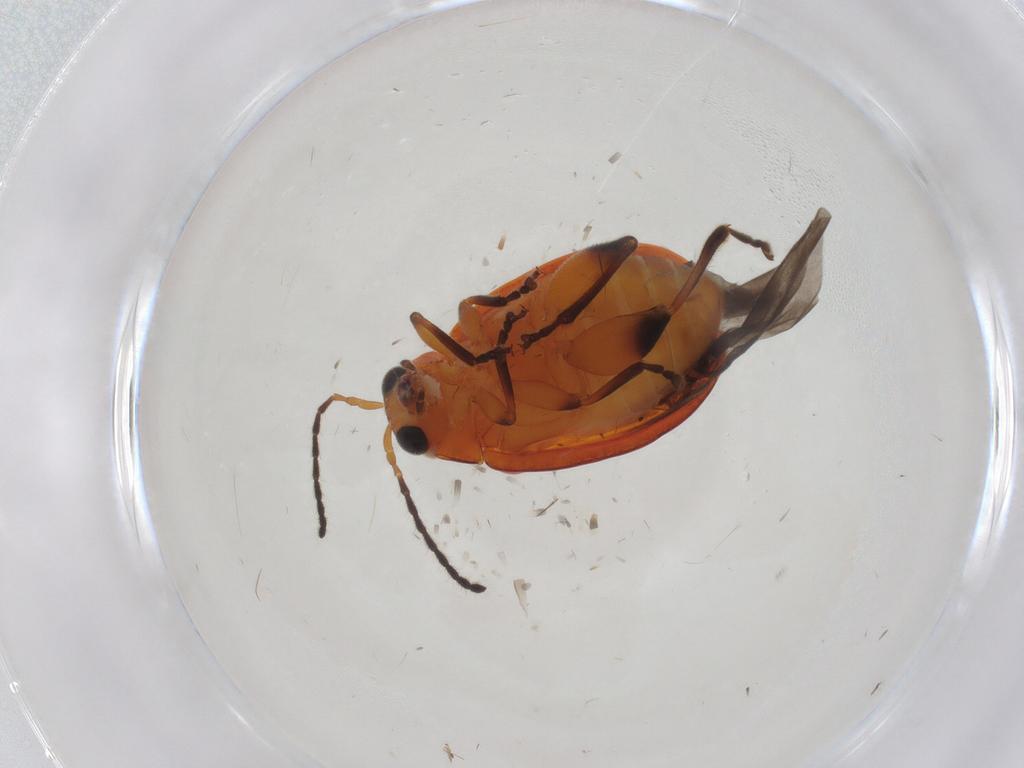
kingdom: Animalia
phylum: Arthropoda
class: Insecta
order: Coleoptera
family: Chrysomelidae
